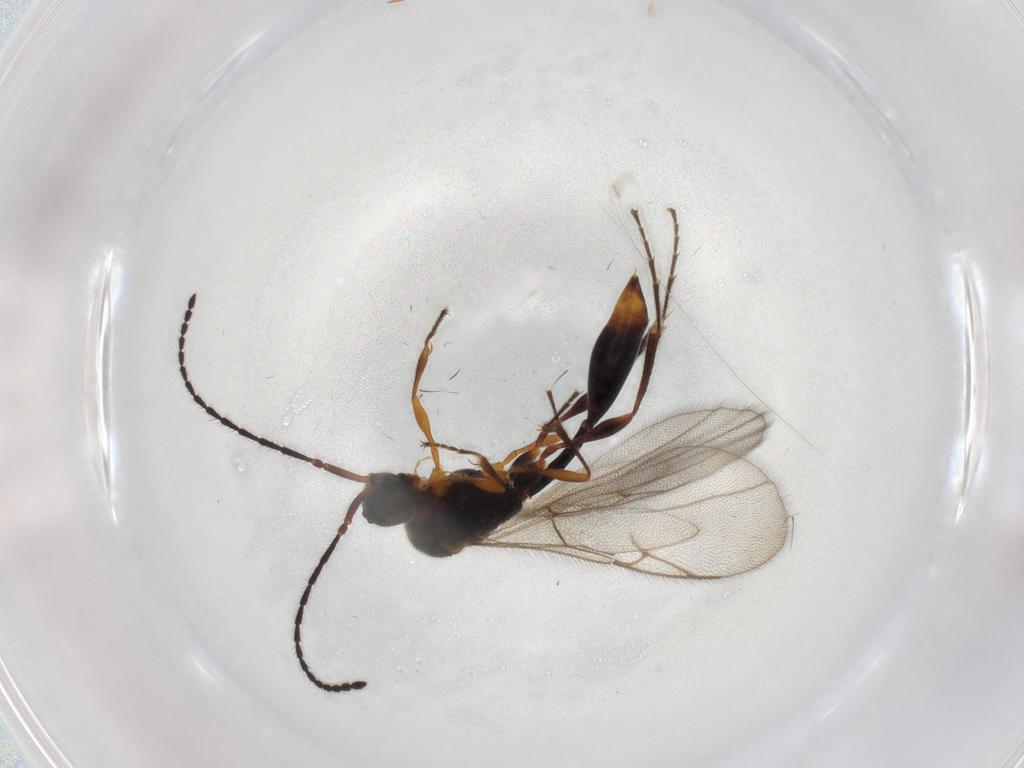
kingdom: Animalia
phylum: Arthropoda
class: Insecta
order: Hymenoptera
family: Diapriidae
